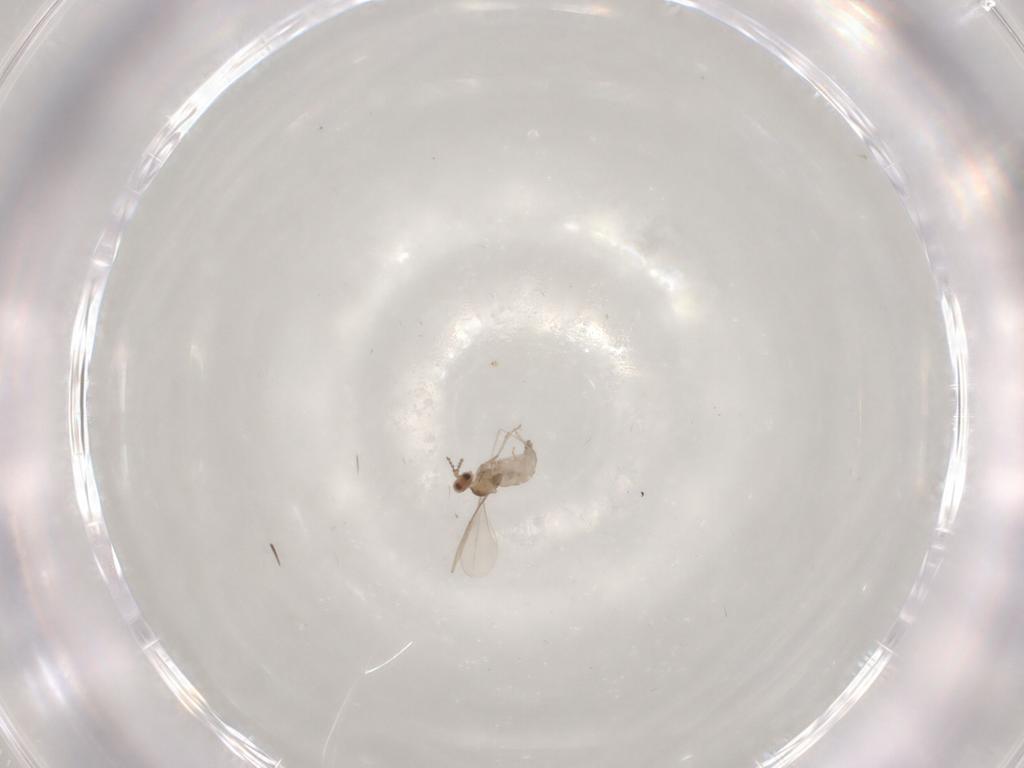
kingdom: Animalia
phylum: Arthropoda
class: Insecta
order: Diptera
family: Cecidomyiidae
